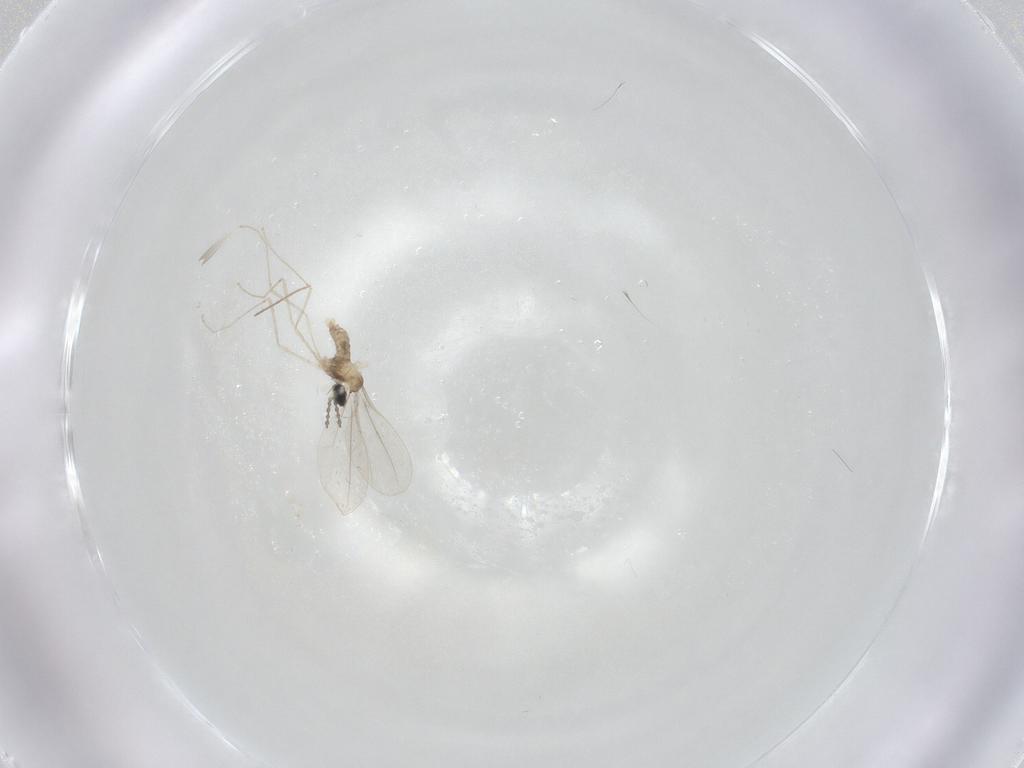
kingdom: Animalia
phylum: Arthropoda
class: Insecta
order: Diptera
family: Cecidomyiidae
